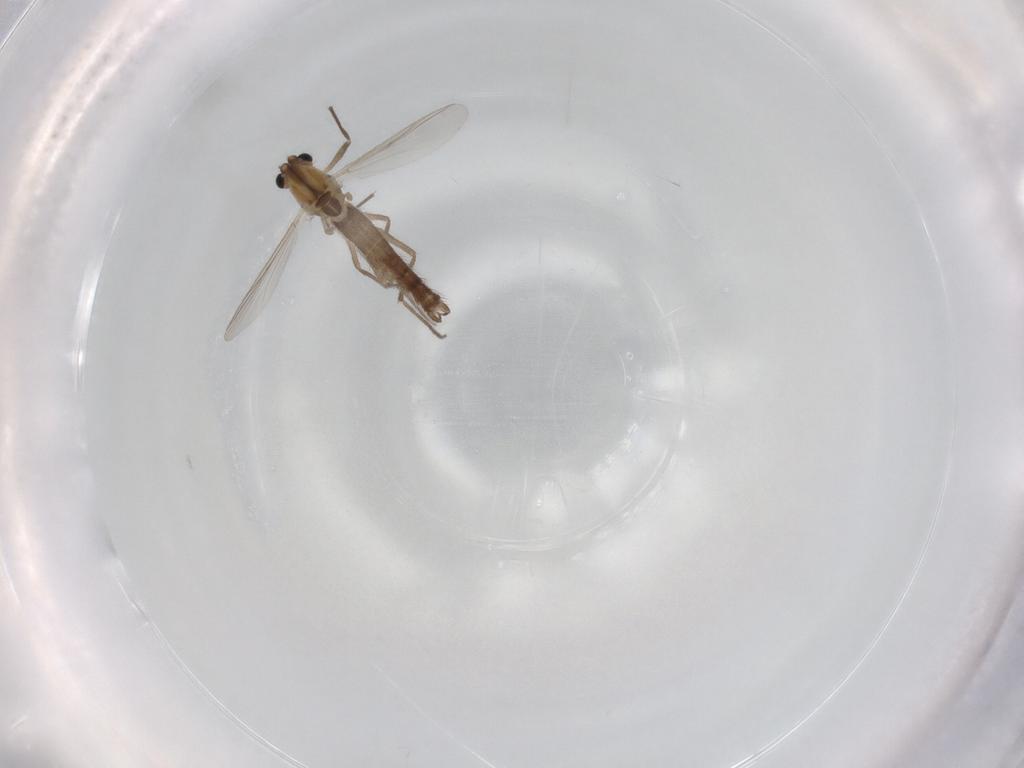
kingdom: Animalia
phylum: Arthropoda
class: Insecta
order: Diptera
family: Chironomidae
